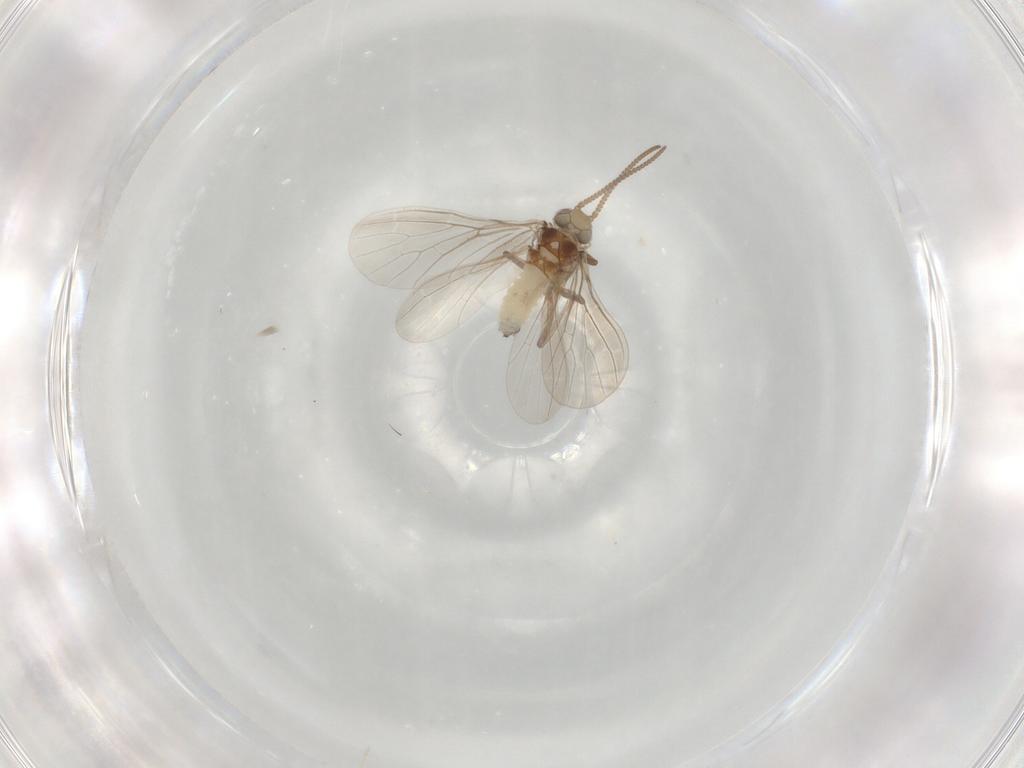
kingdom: Animalia
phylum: Arthropoda
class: Insecta
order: Neuroptera
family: Coniopterygidae
